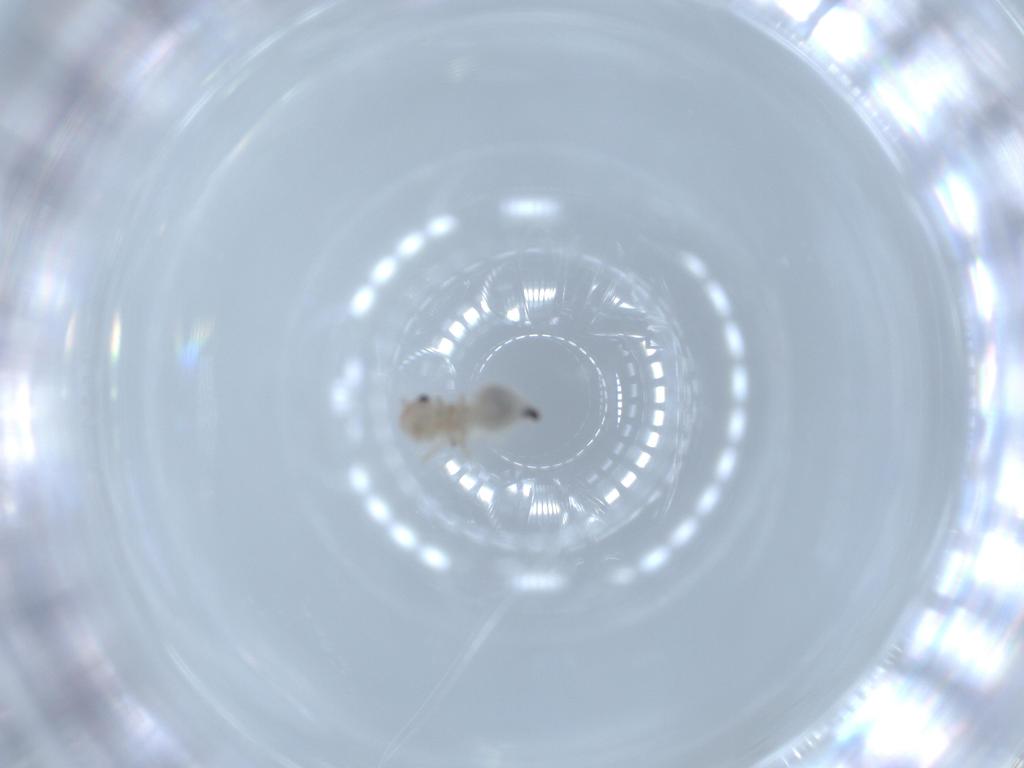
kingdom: Animalia
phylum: Arthropoda
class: Insecta
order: Psocodea
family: Amphipsocidae
